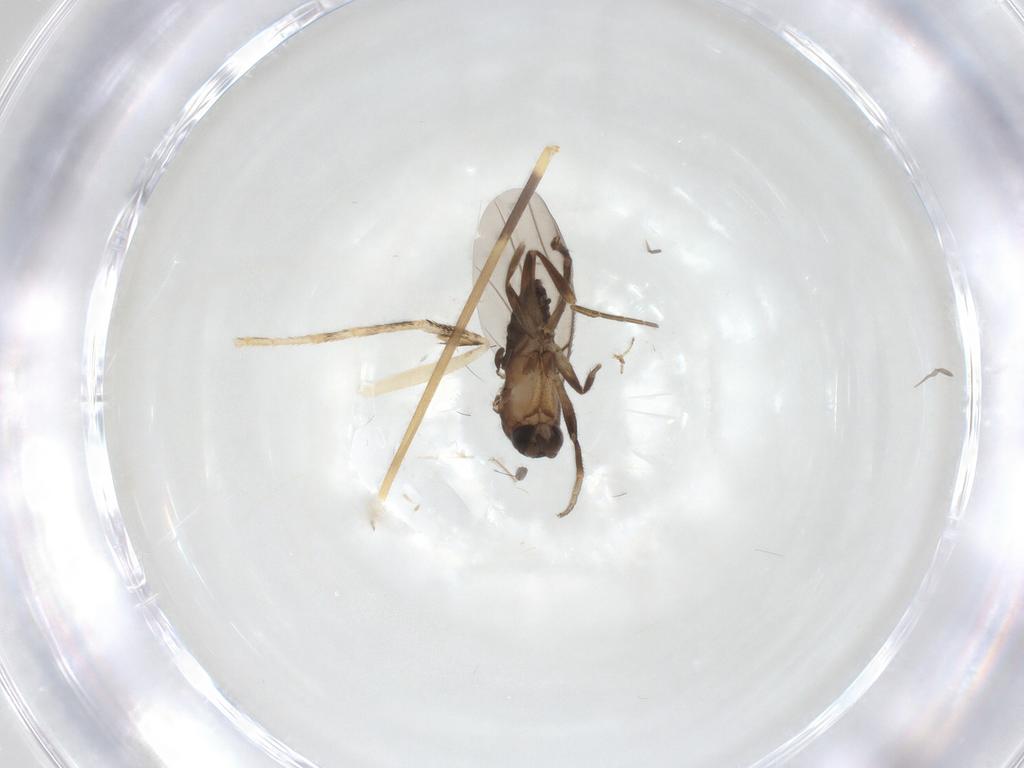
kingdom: Animalia
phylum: Arthropoda
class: Insecta
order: Diptera
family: Limoniidae
